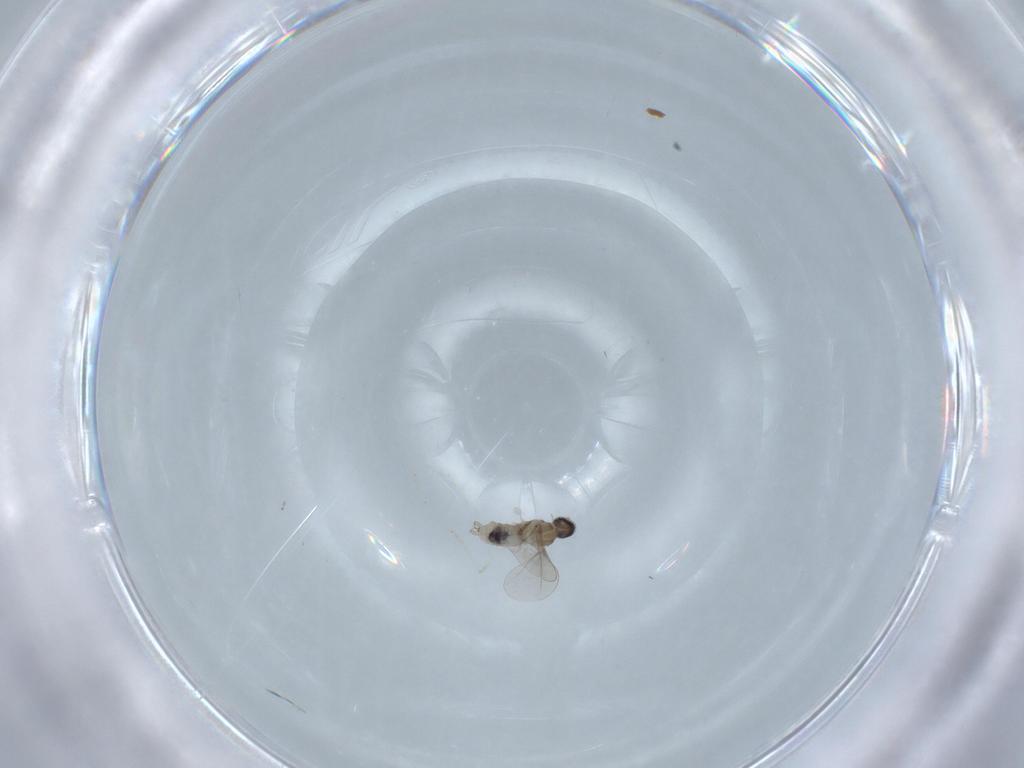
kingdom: Animalia
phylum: Arthropoda
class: Insecta
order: Diptera
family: Cecidomyiidae
